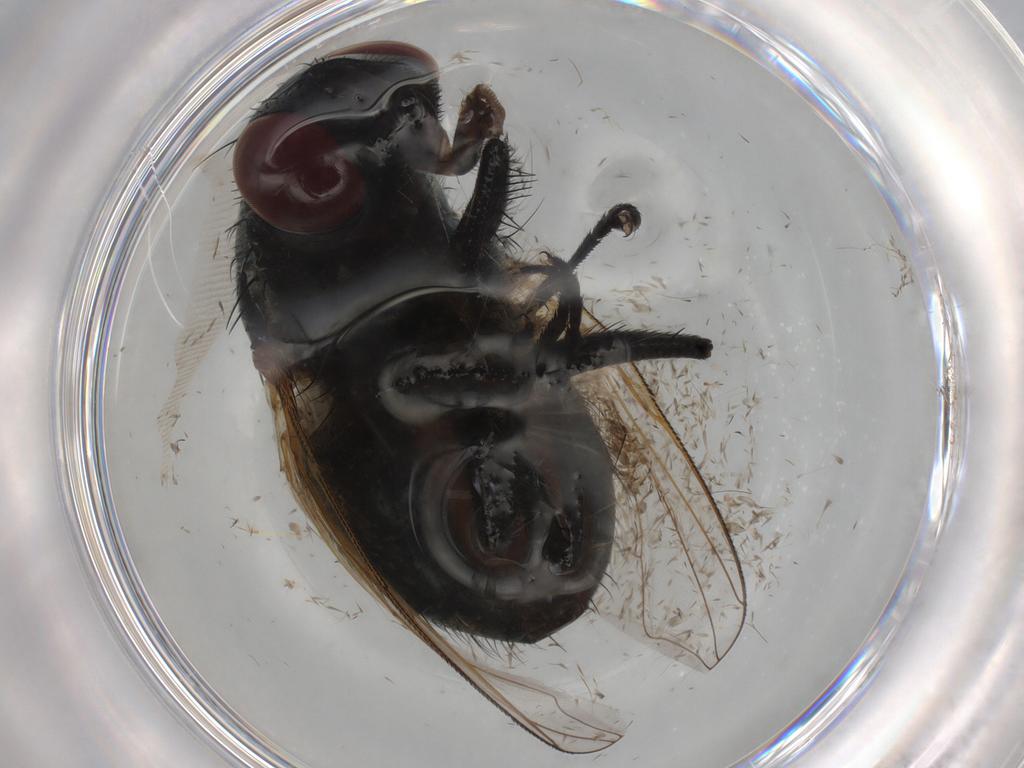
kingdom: Animalia
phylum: Arthropoda
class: Insecta
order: Diptera
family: Muscidae
